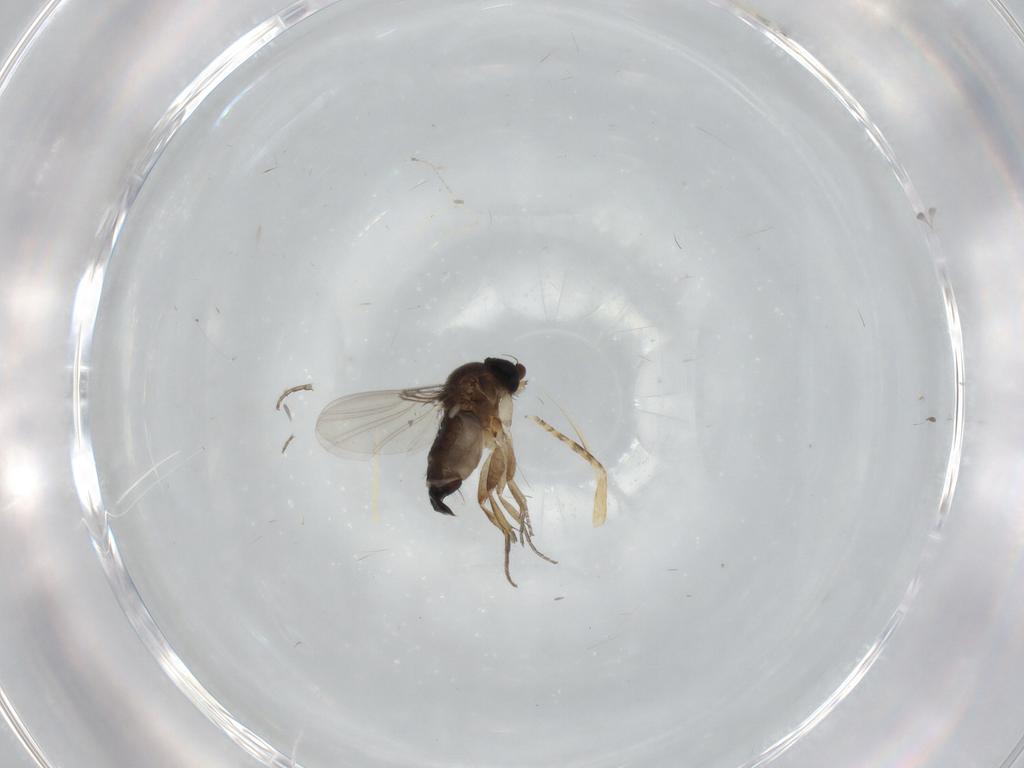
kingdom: Animalia
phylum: Arthropoda
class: Insecta
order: Diptera
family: Phoridae
